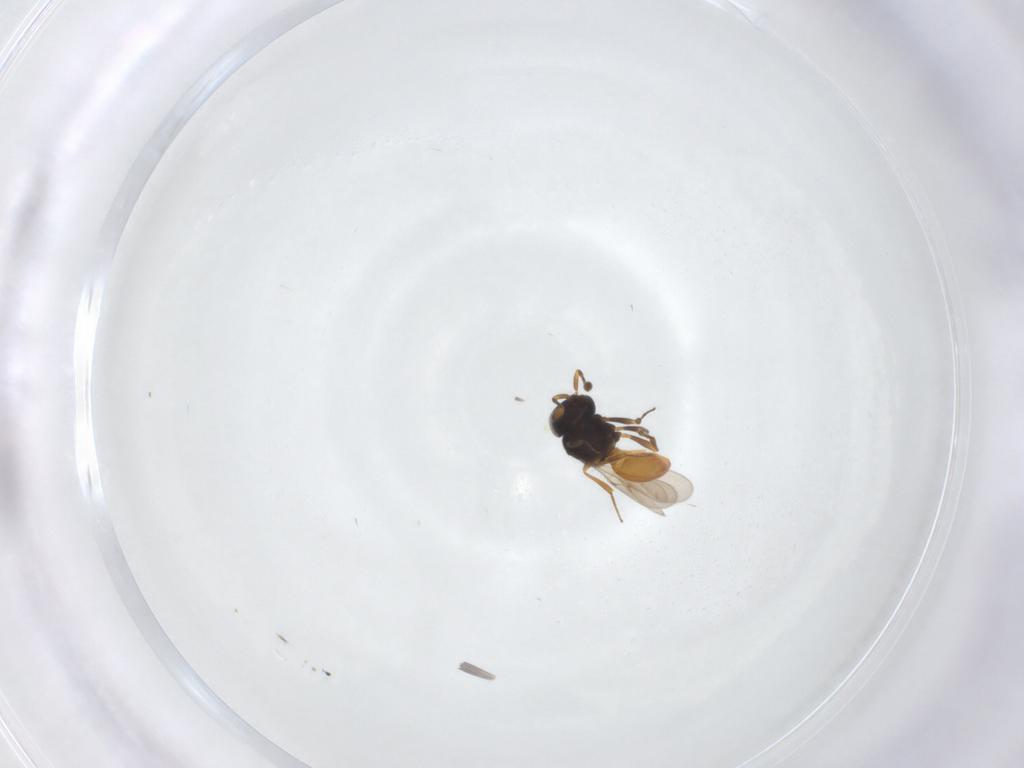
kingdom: Animalia
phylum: Arthropoda
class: Insecta
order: Hymenoptera
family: Scelionidae
